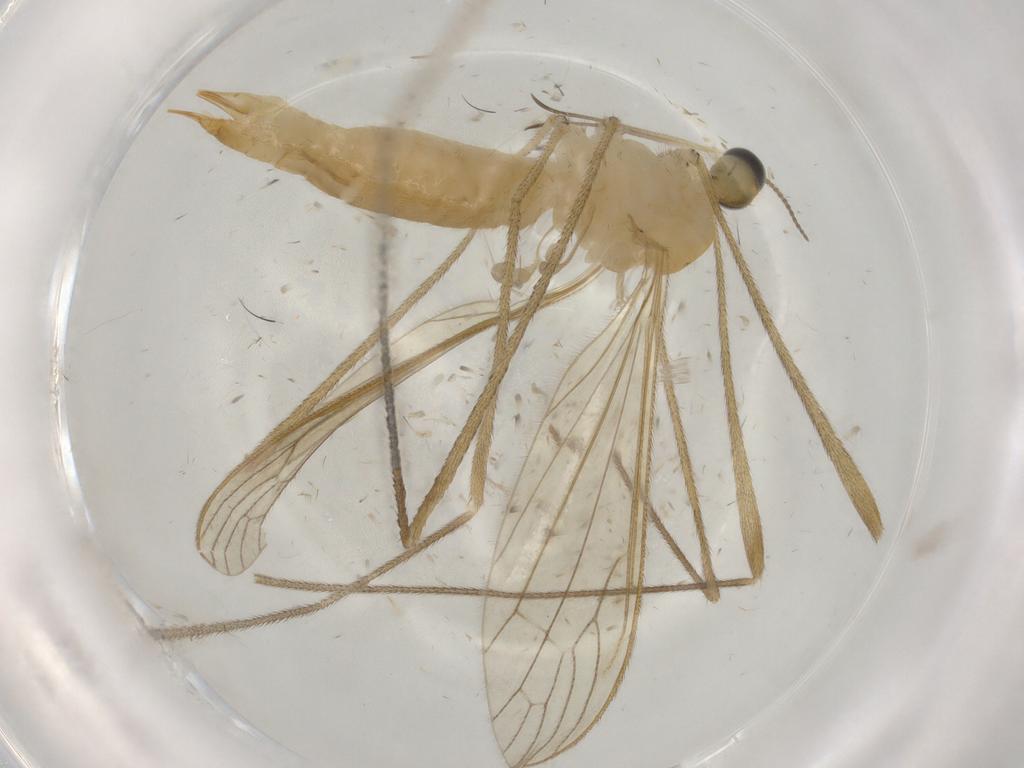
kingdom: Animalia
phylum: Arthropoda
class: Insecta
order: Diptera
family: Limoniidae
